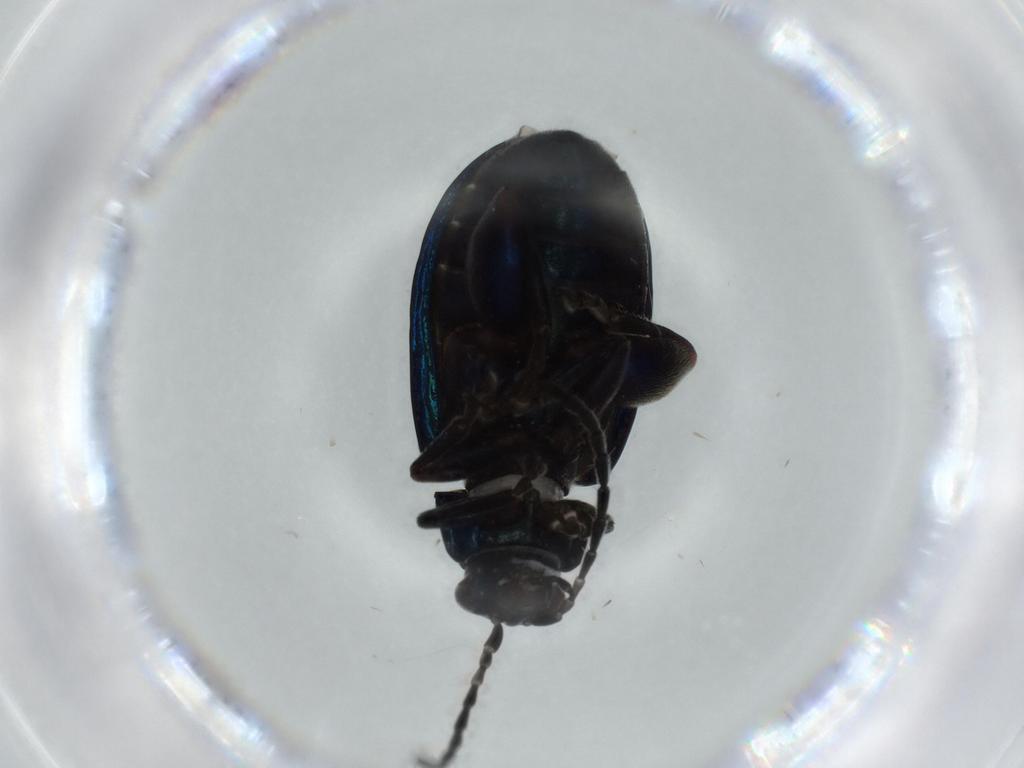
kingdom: Animalia
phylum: Arthropoda
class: Insecta
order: Coleoptera
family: Chrysomelidae
